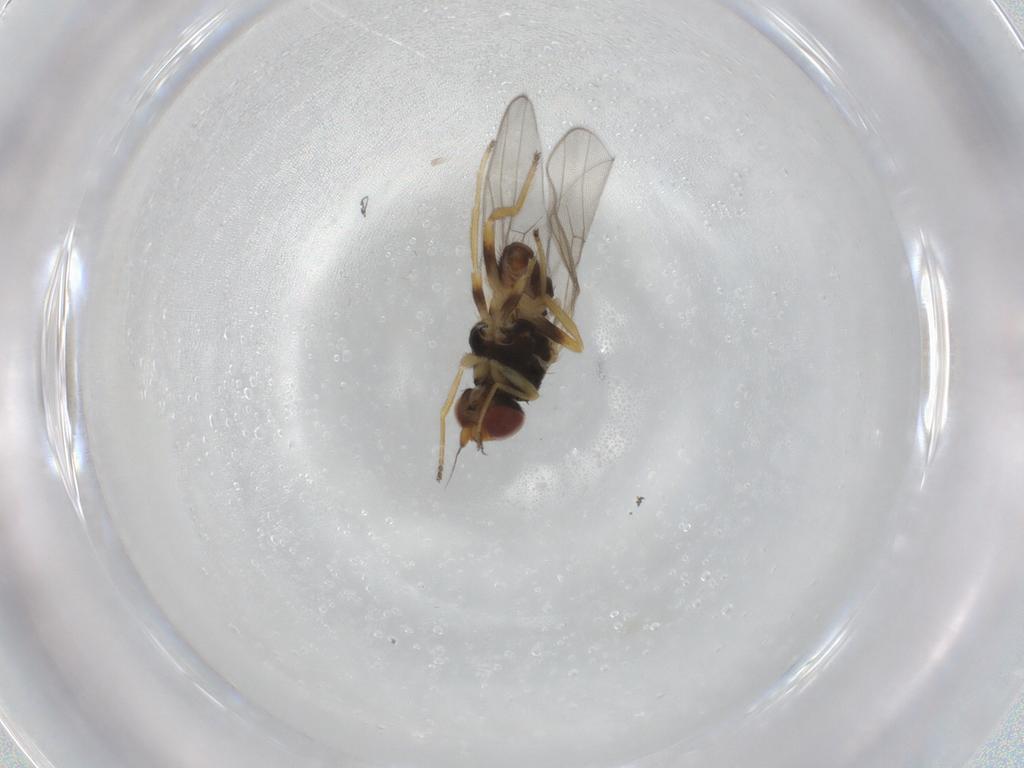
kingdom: Animalia
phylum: Arthropoda
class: Insecta
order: Diptera
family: Chloropidae
